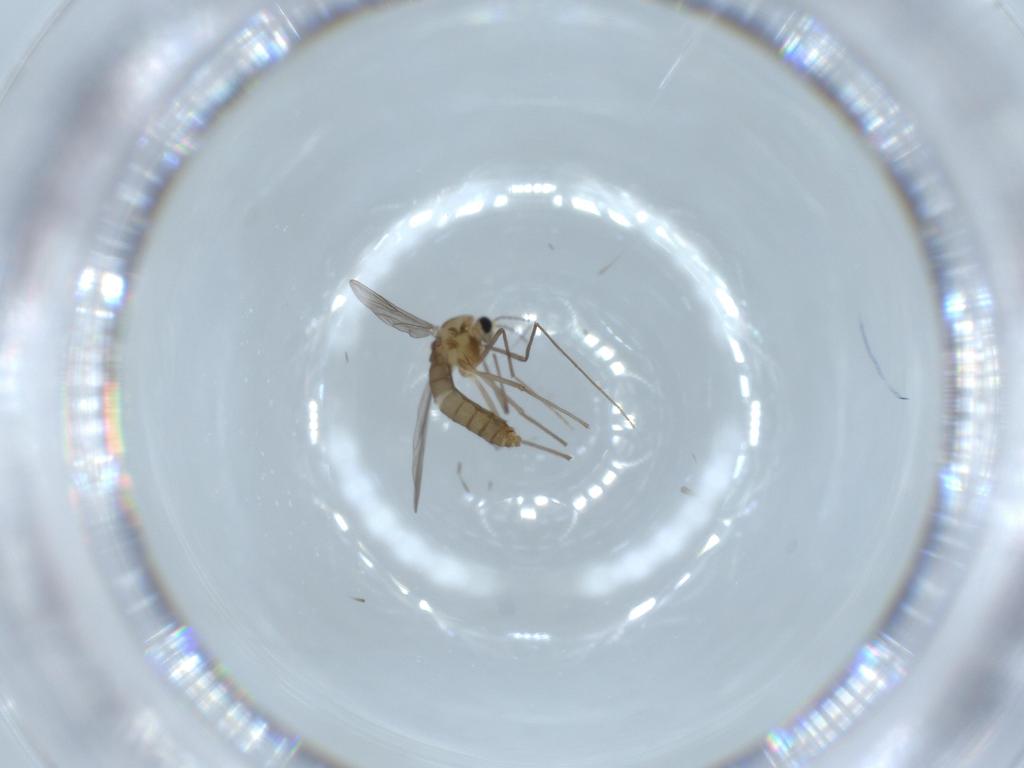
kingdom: Animalia
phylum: Arthropoda
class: Insecta
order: Diptera
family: Chironomidae
